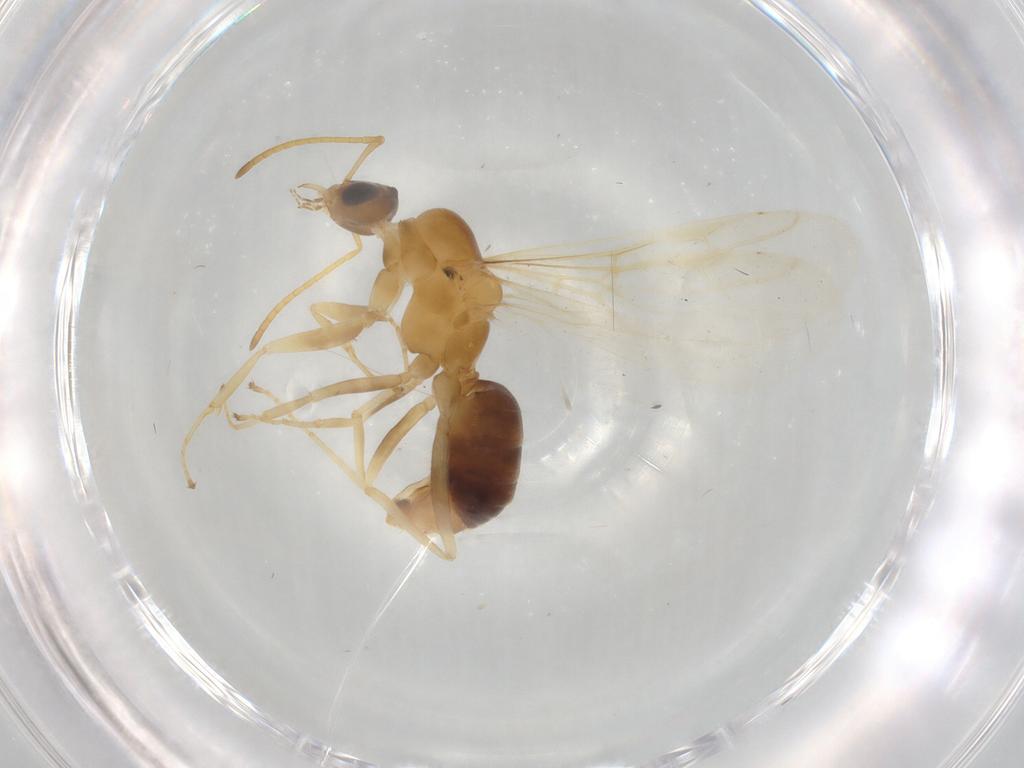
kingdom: Animalia
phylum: Arthropoda
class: Insecta
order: Hymenoptera
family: Formicidae
